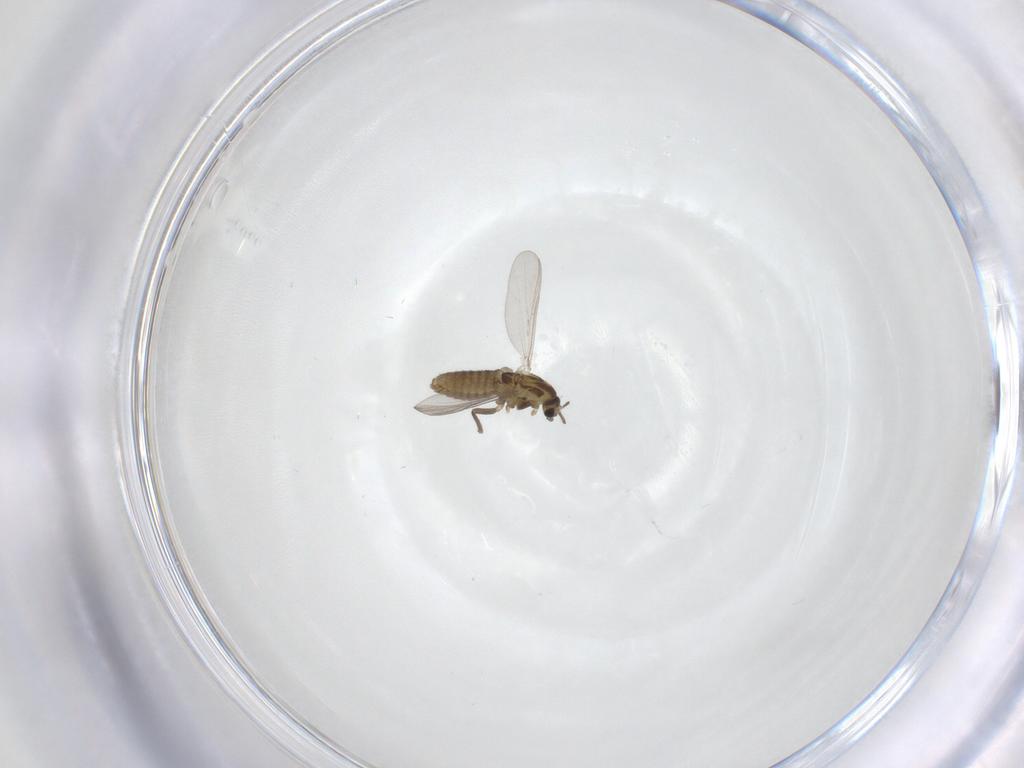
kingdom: Animalia
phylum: Arthropoda
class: Insecta
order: Diptera
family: Chironomidae
